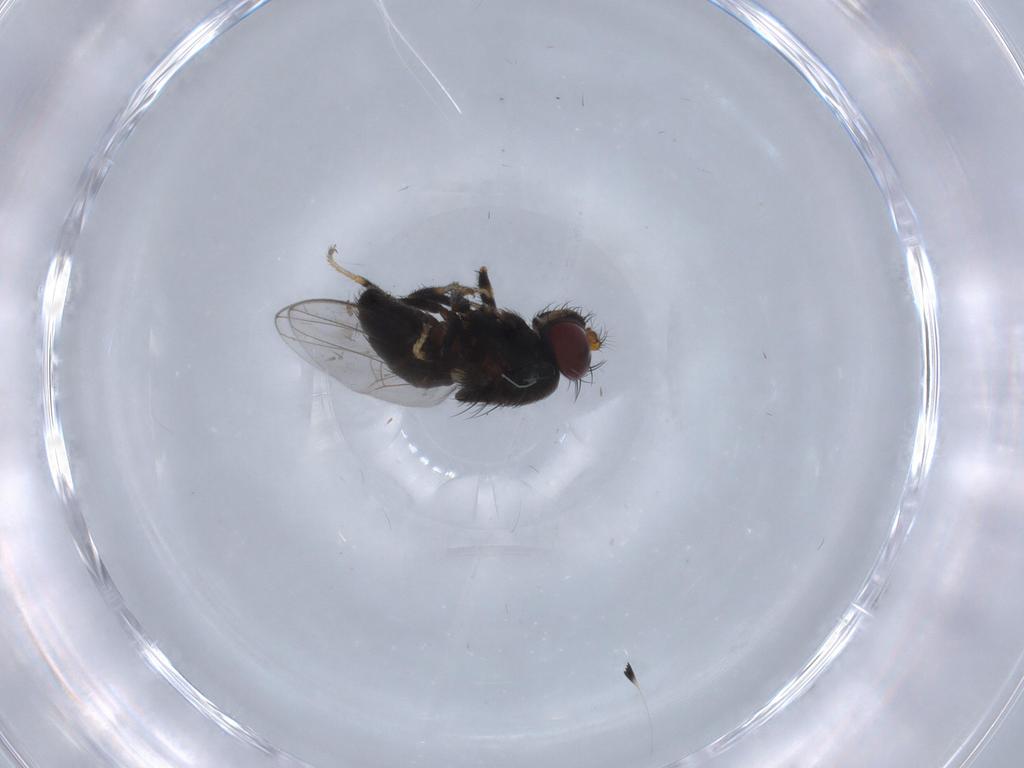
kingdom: Animalia
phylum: Arthropoda
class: Insecta
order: Diptera
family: Chironomidae
